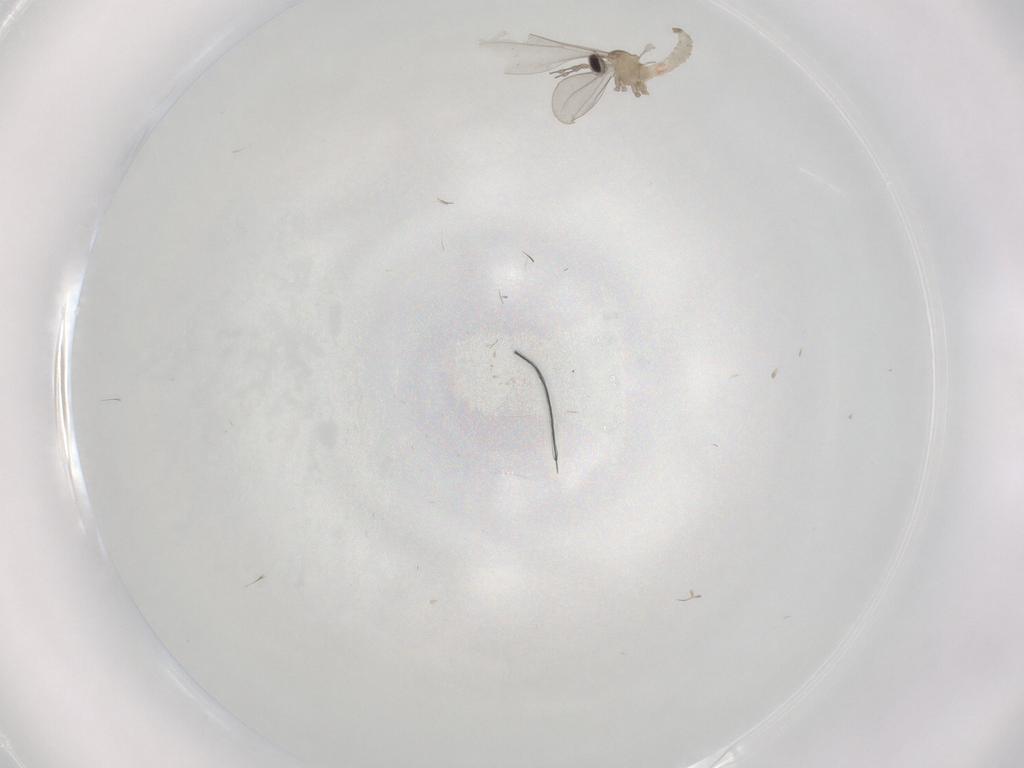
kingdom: Animalia
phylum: Arthropoda
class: Insecta
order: Diptera
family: Cecidomyiidae
